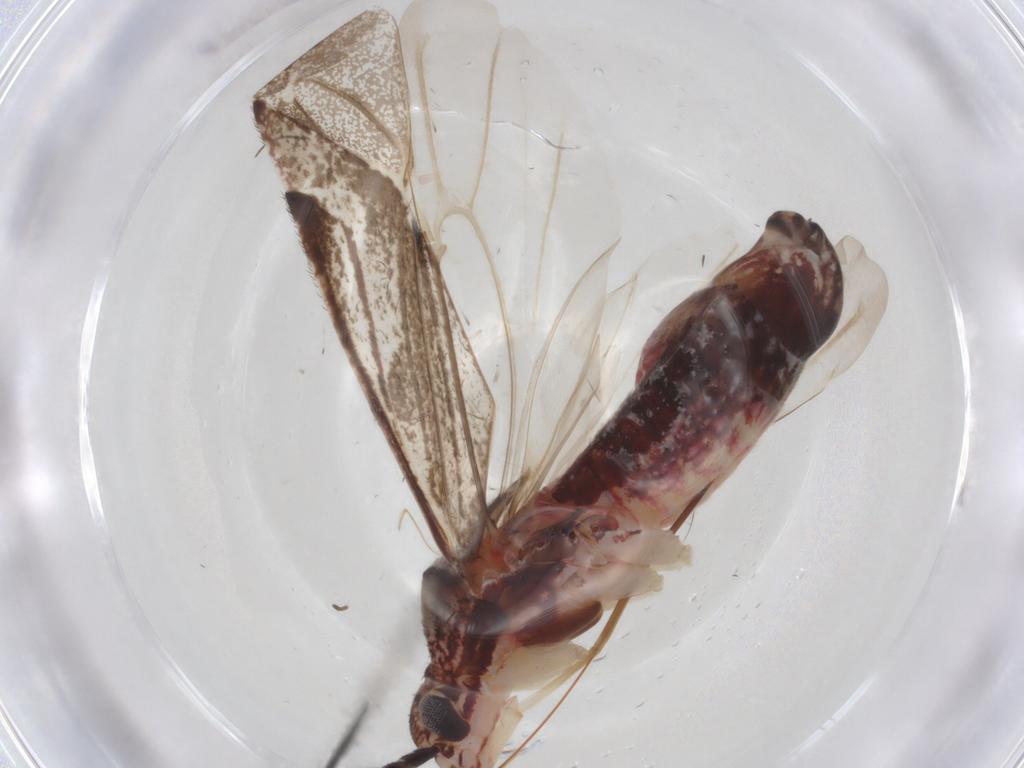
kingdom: Animalia
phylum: Arthropoda
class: Insecta
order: Hemiptera
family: Miridae
